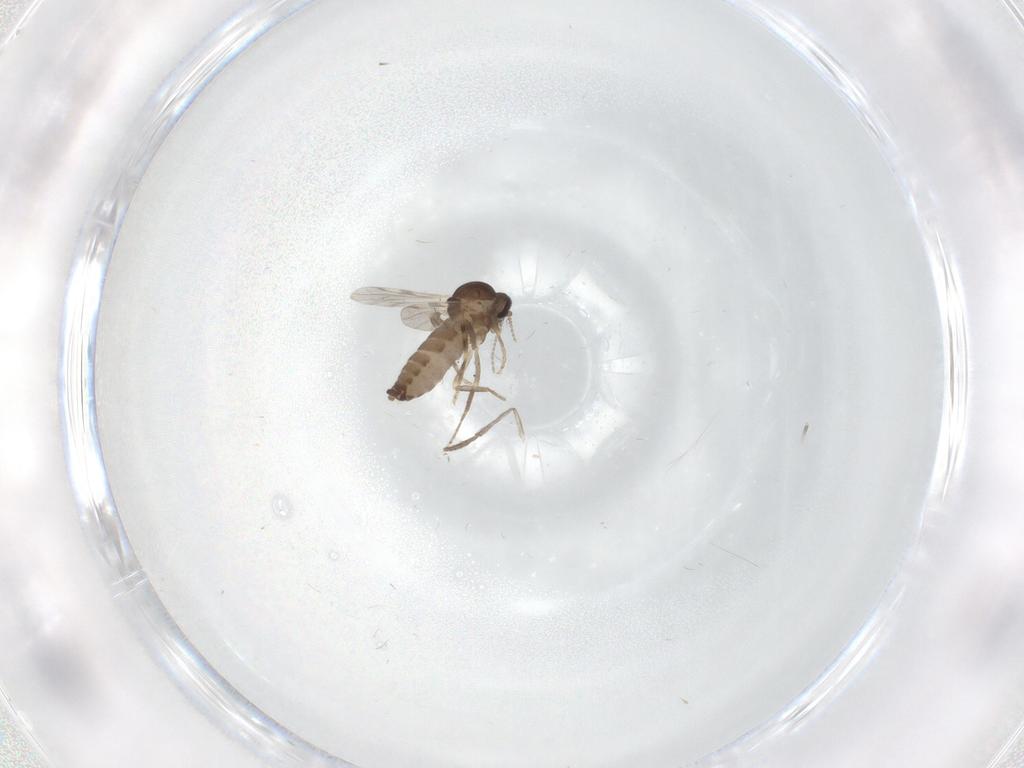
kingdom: Animalia
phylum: Arthropoda
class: Insecta
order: Diptera
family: Ceratopogonidae
